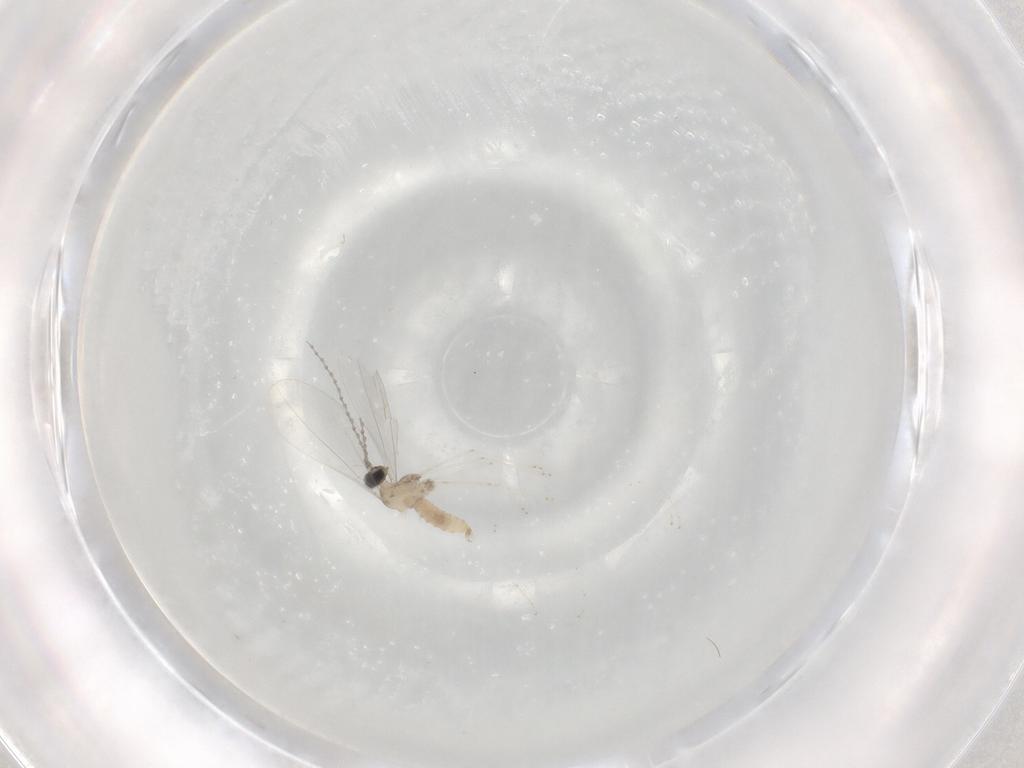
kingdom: Animalia
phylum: Arthropoda
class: Insecta
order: Diptera
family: Cecidomyiidae
